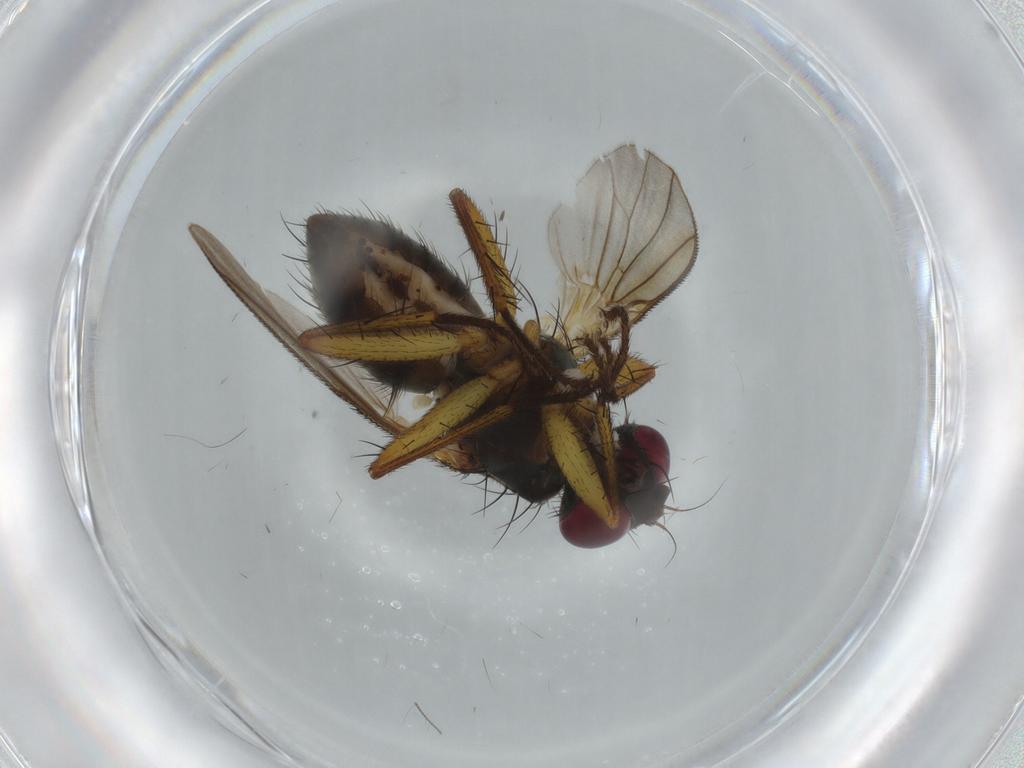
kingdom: Animalia
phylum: Arthropoda
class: Insecta
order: Diptera
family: Muscidae
